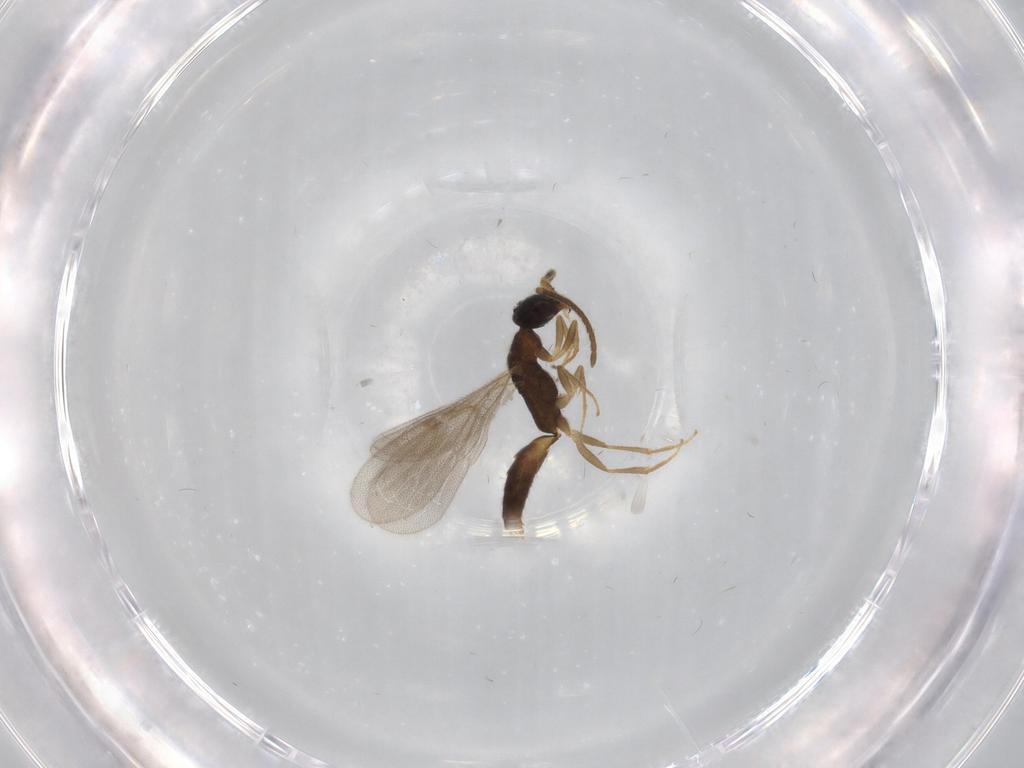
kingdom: Animalia
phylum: Arthropoda
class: Insecta
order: Hymenoptera
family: Bethylidae
